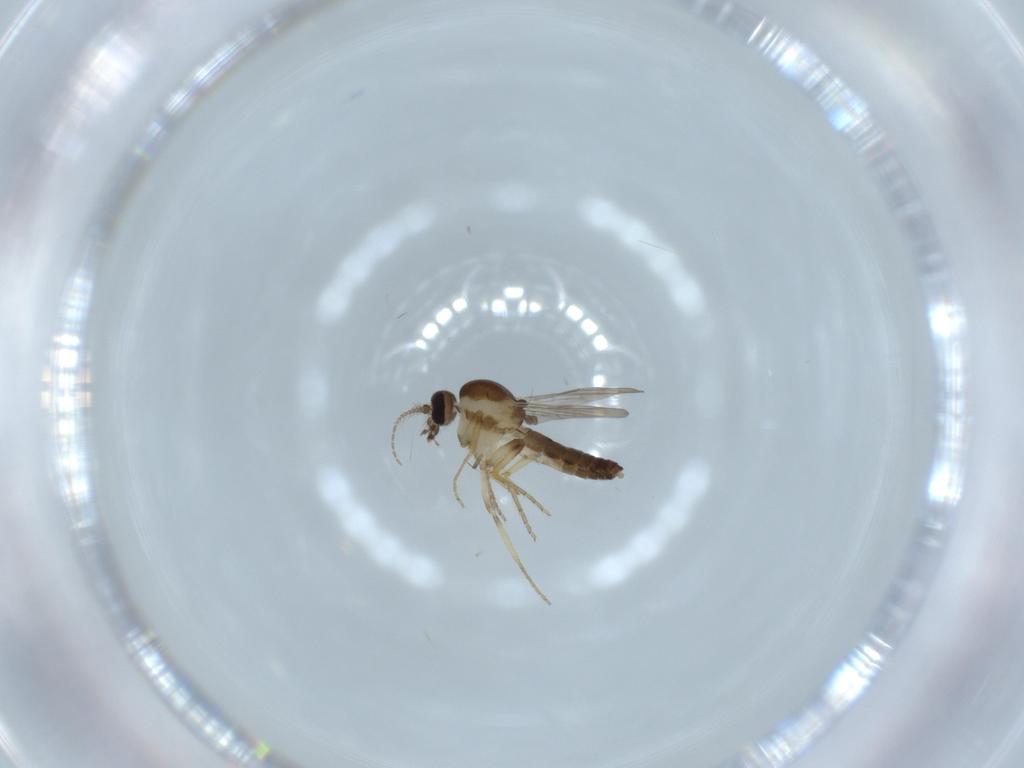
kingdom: Animalia
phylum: Arthropoda
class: Insecta
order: Diptera
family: Ceratopogonidae
